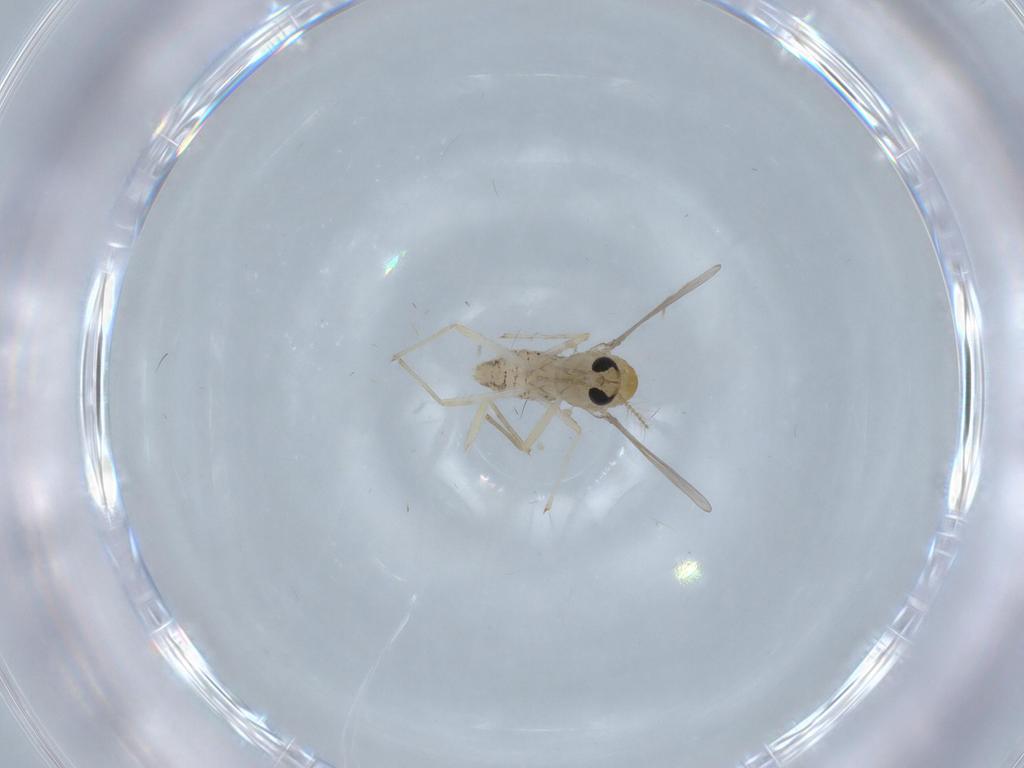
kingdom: Animalia
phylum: Arthropoda
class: Insecta
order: Diptera
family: Chironomidae
